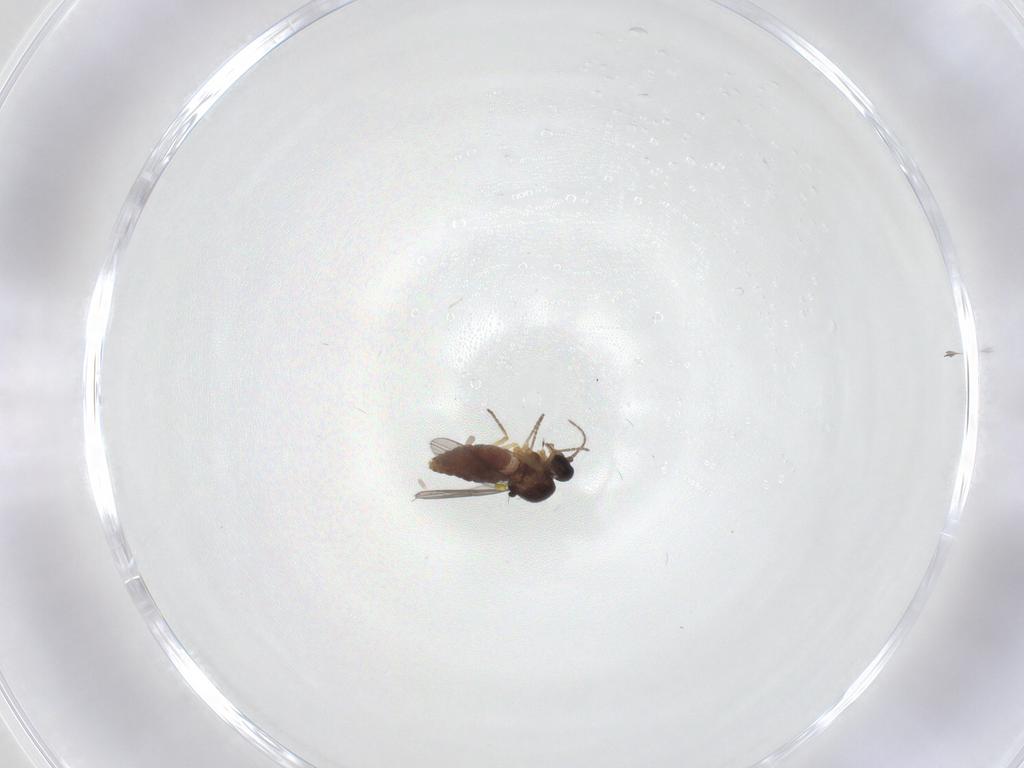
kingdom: Animalia
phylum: Arthropoda
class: Insecta
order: Diptera
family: Ceratopogonidae
